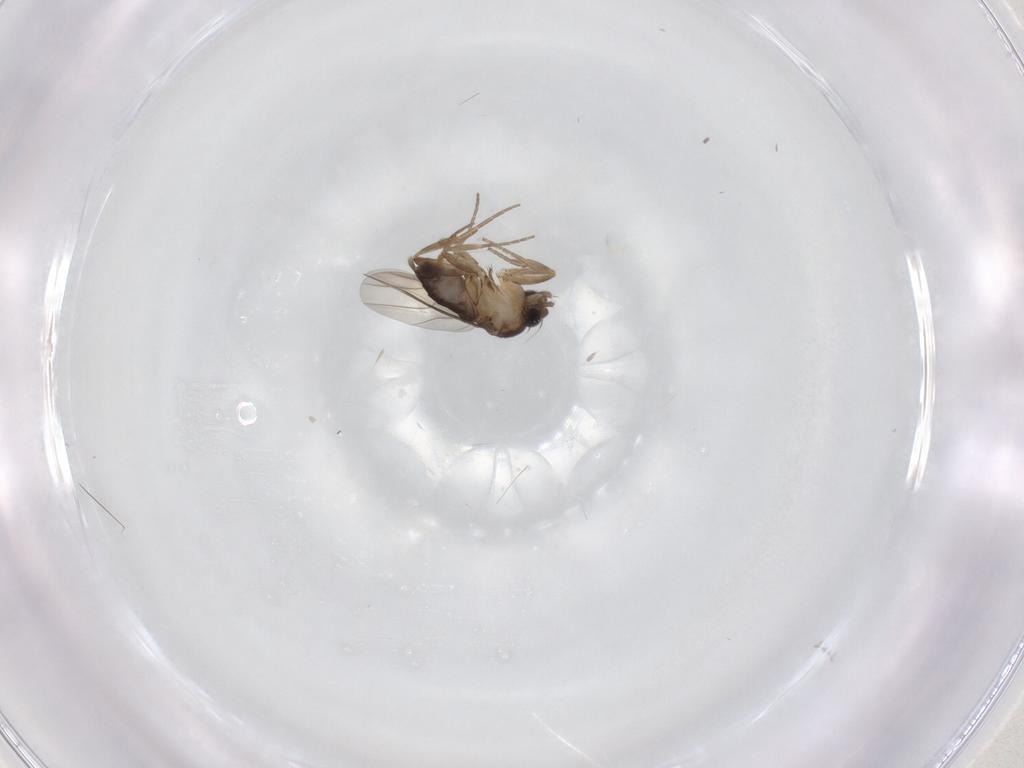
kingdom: Animalia
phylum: Arthropoda
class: Insecta
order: Diptera
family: Phoridae
